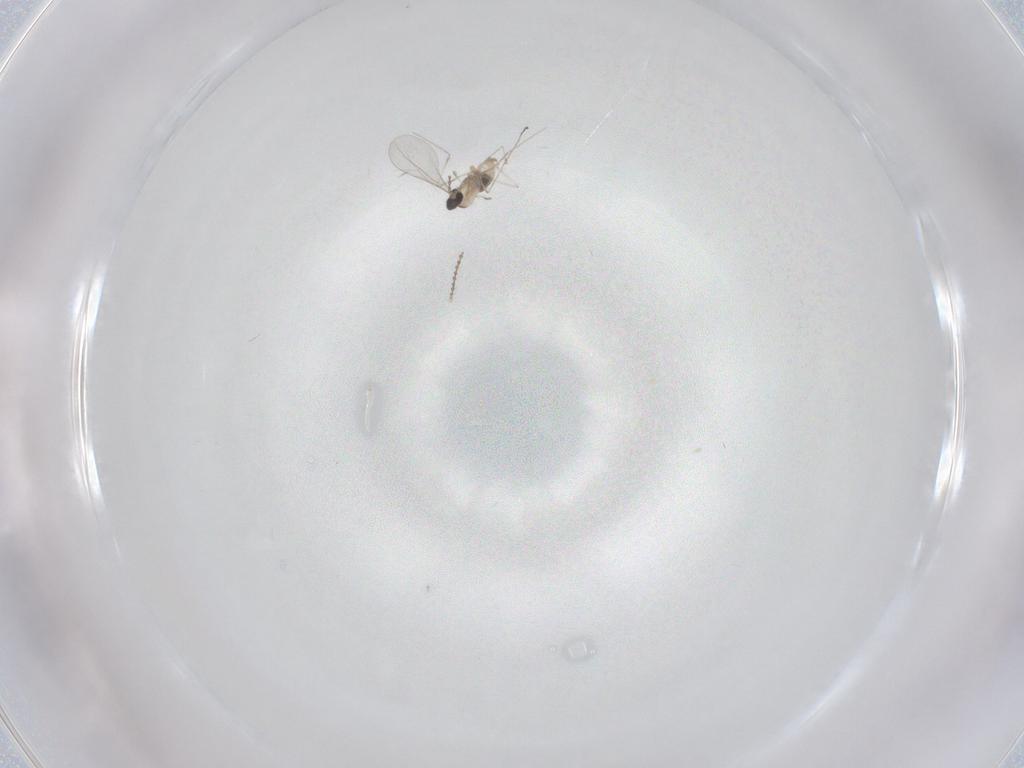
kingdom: Animalia
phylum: Arthropoda
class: Insecta
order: Diptera
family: Cecidomyiidae
